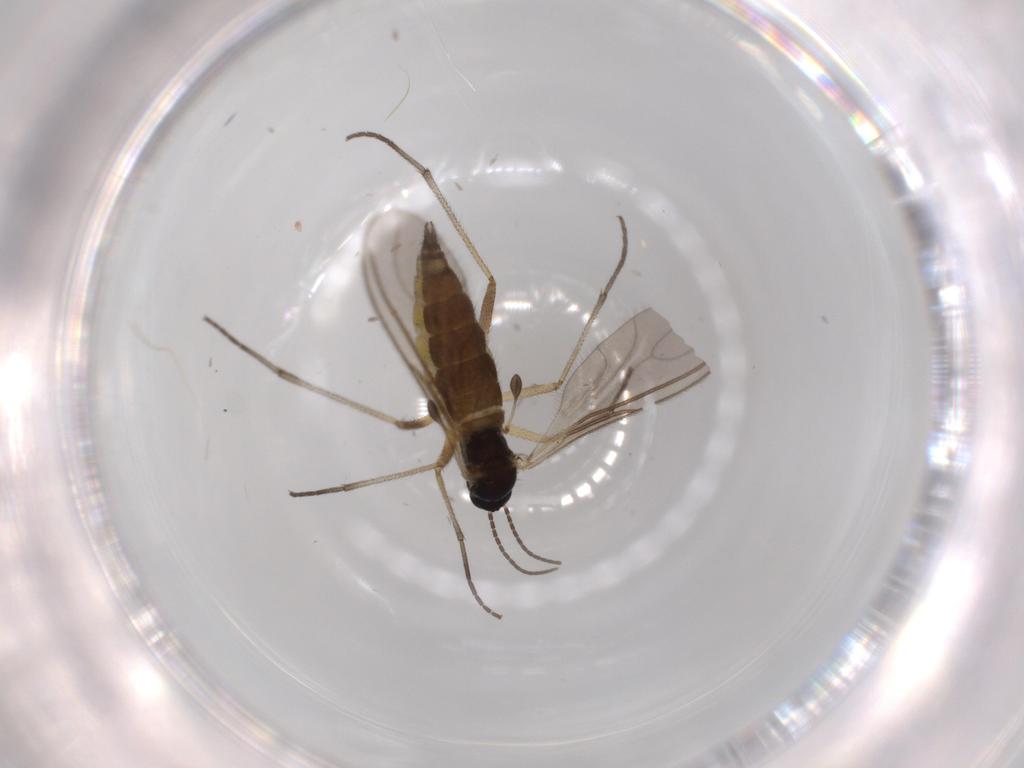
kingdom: Animalia
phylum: Arthropoda
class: Insecta
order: Diptera
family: Sciaridae
